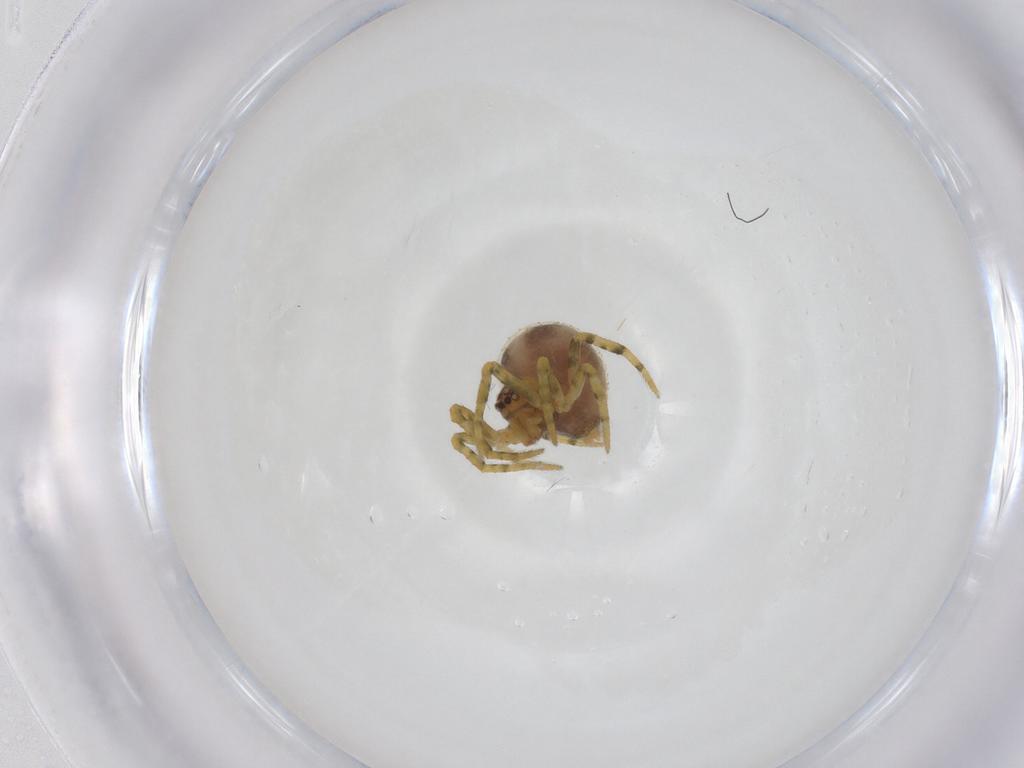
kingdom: Animalia
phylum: Arthropoda
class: Arachnida
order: Araneae
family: Theridiidae
